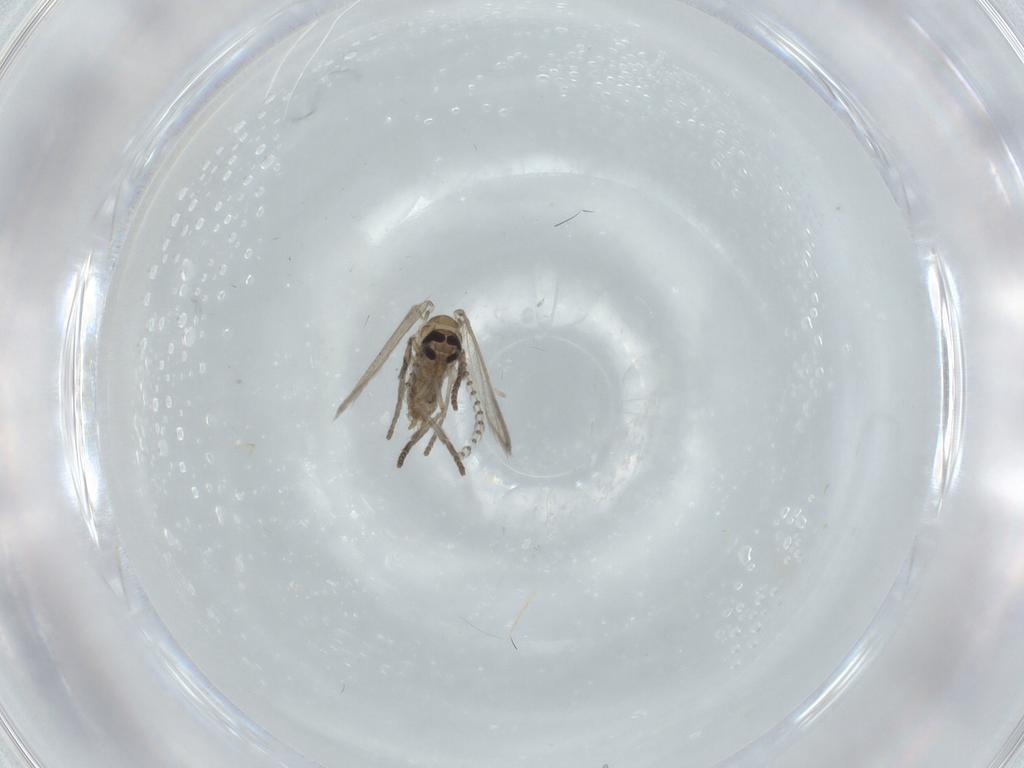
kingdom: Animalia
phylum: Arthropoda
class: Insecta
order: Diptera
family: Psychodidae
